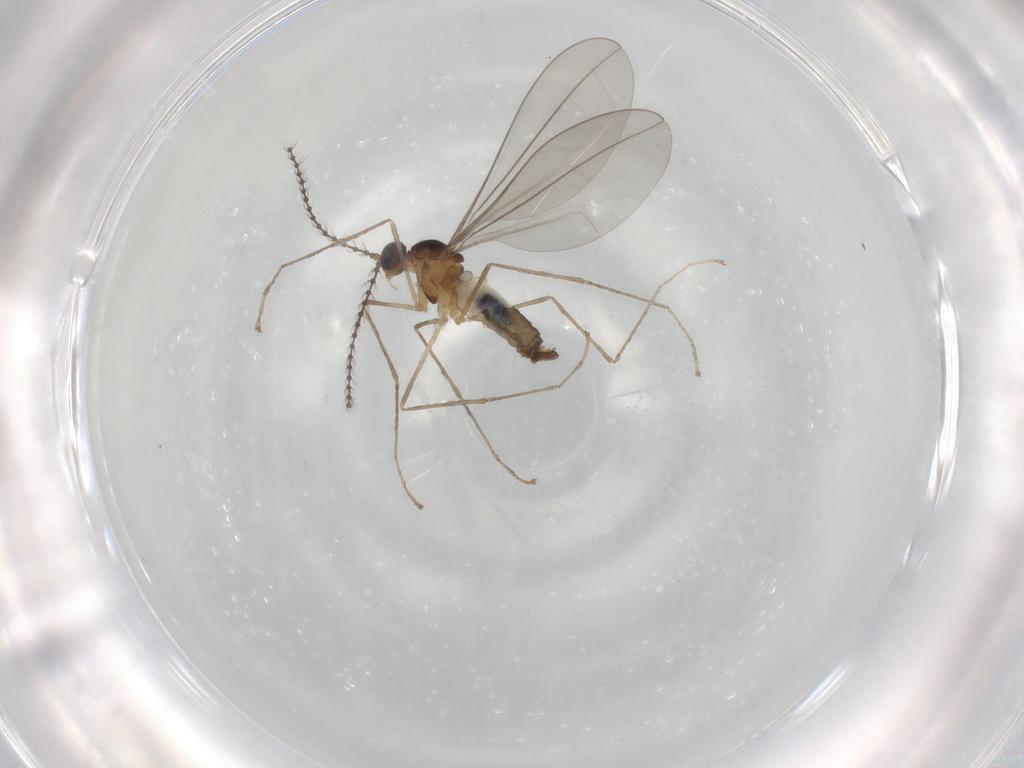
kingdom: Animalia
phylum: Arthropoda
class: Insecta
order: Diptera
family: Cecidomyiidae
